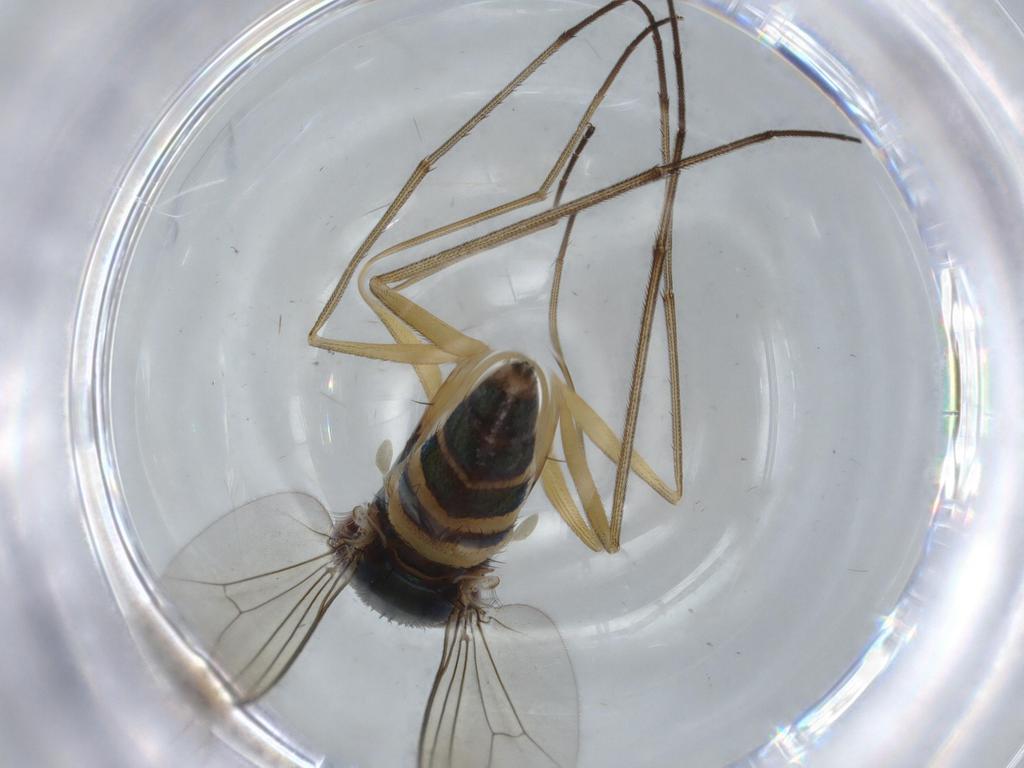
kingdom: Animalia
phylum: Arthropoda
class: Insecta
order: Diptera
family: Dolichopodidae
